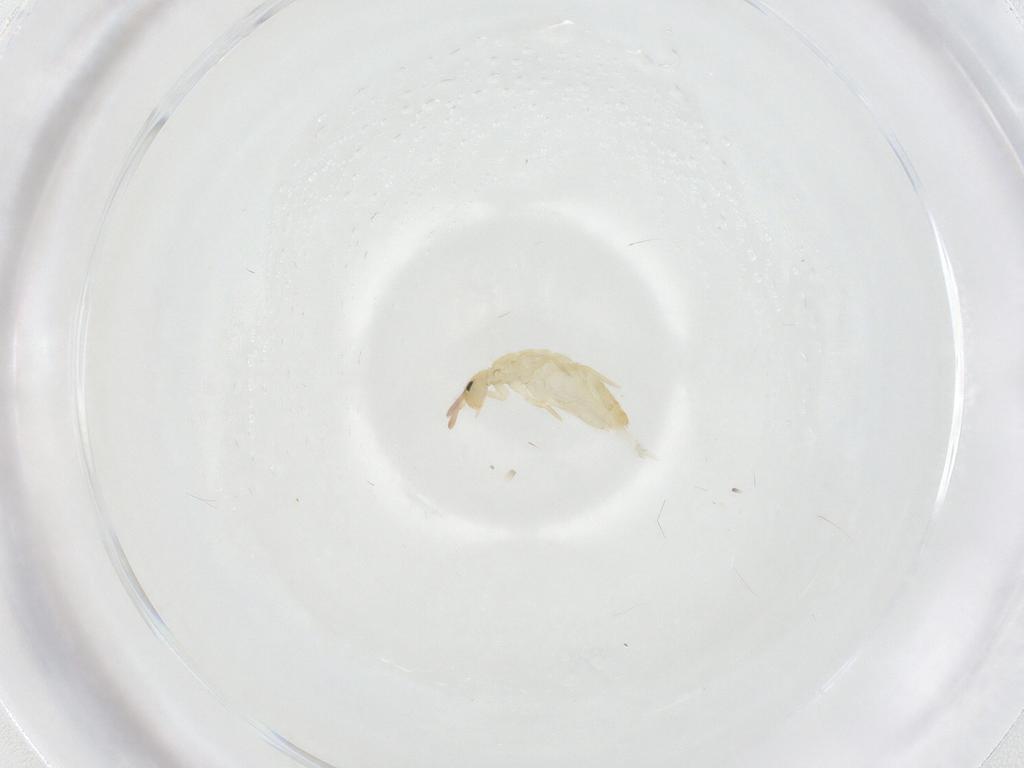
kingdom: Animalia
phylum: Arthropoda
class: Collembola
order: Entomobryomorpha
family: Entomobryidae
